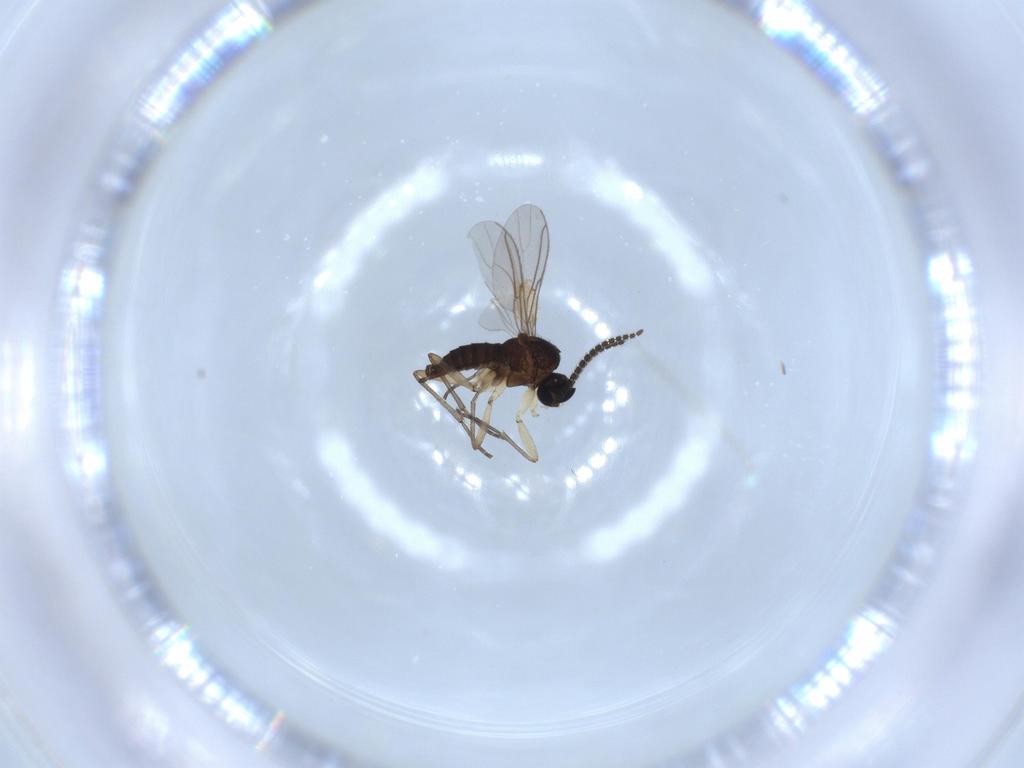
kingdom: Animalia
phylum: Arthropoda
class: Insecta
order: Diptera
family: Sciaridae
